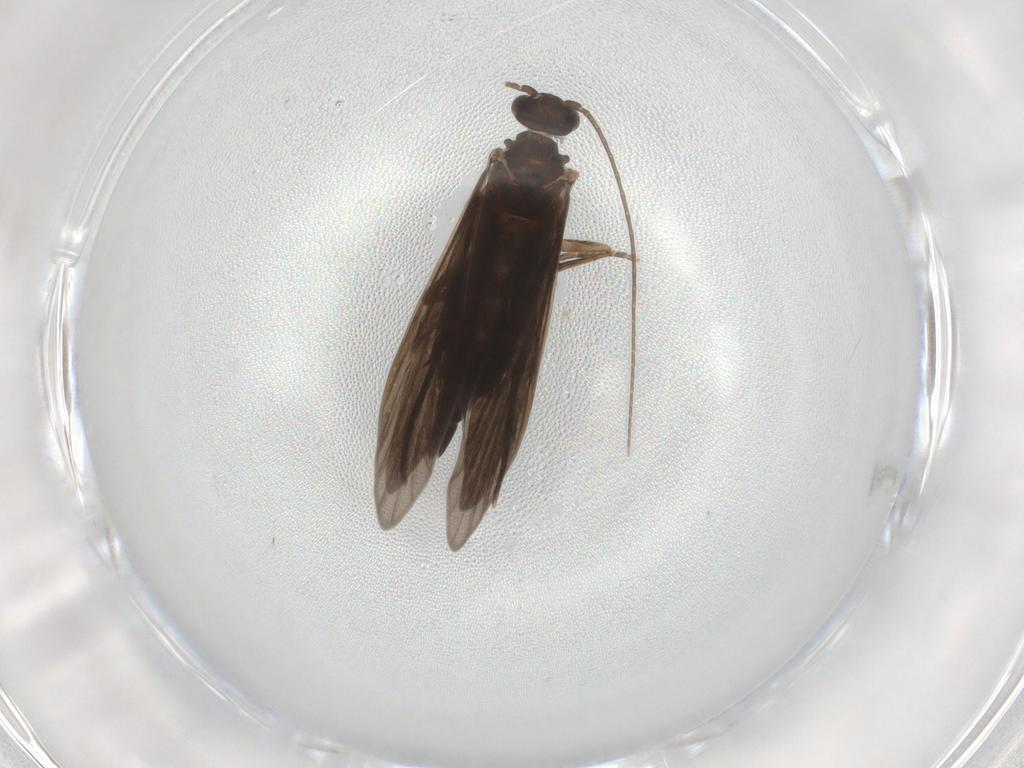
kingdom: Animalia
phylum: Arthropoda
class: Insecta
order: Trichoptera
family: Xiphocentronidae
